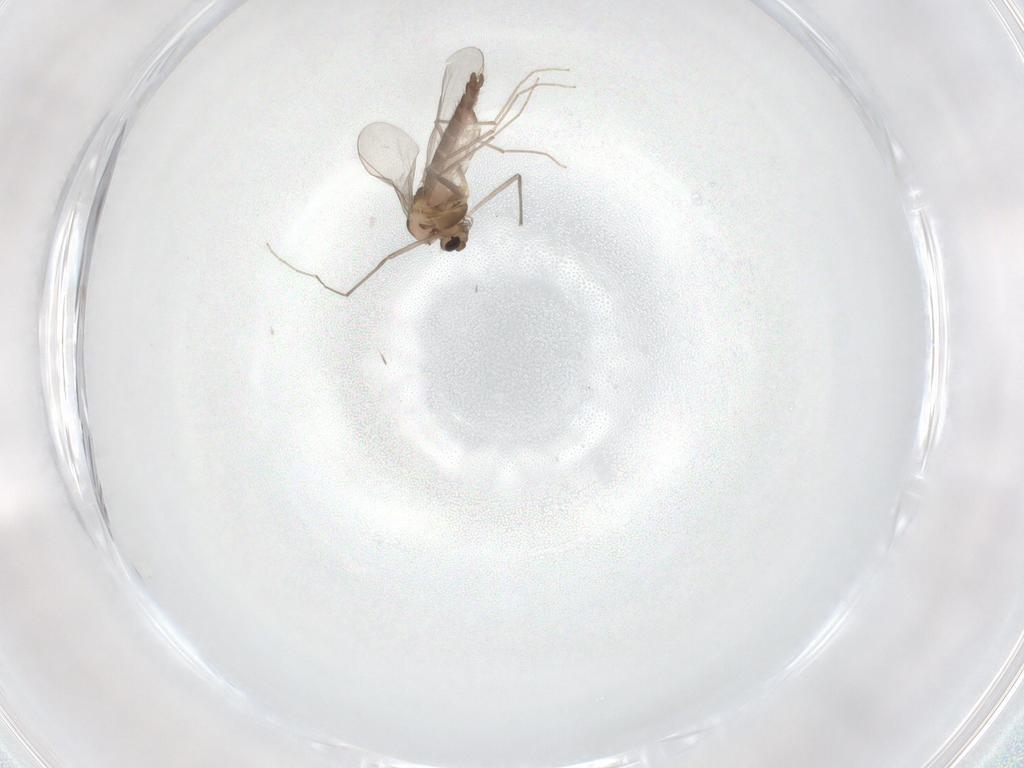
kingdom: Animalia
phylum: Arthropoda
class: Insecta
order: Diptera
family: Chironomidae
